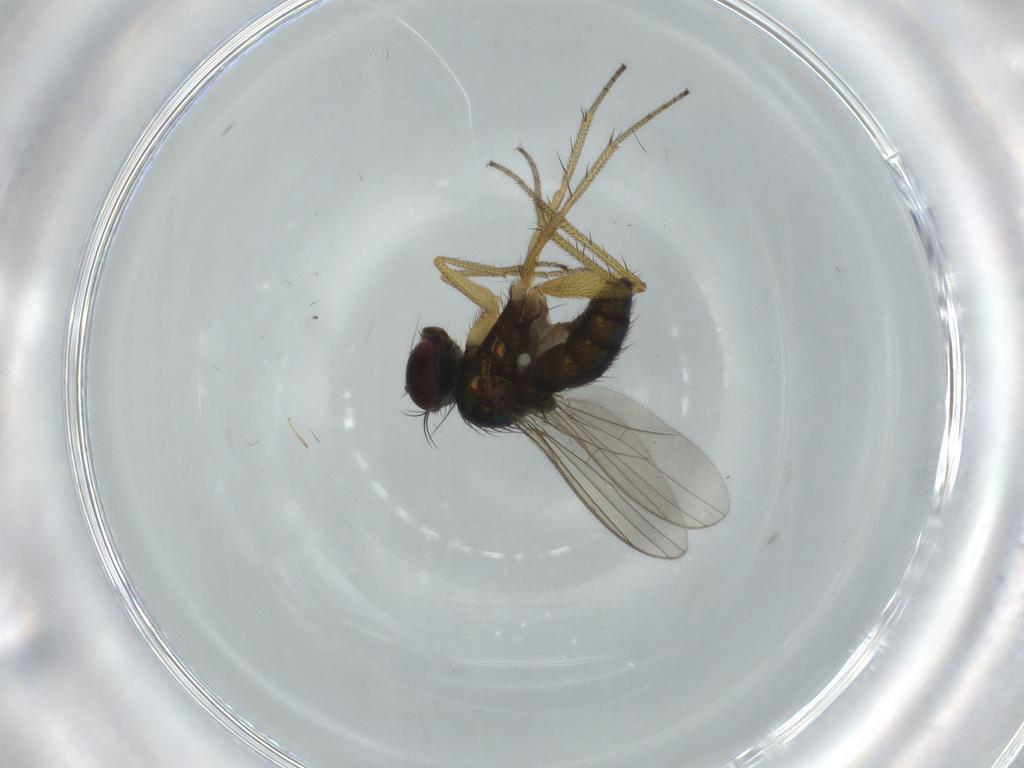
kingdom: Animalia
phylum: Arthropoda
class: Insecta
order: Diptera
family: Dolichopodidae
